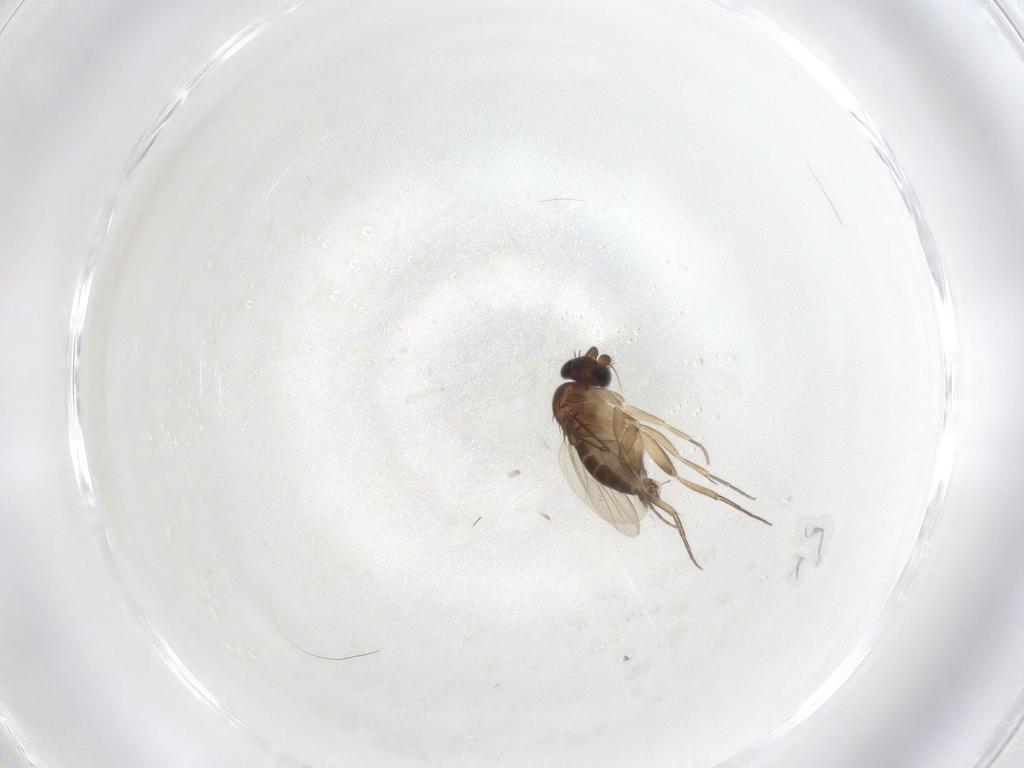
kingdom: Animalia
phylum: Arthropoda
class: Insecta
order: Diptera
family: Phoridae
